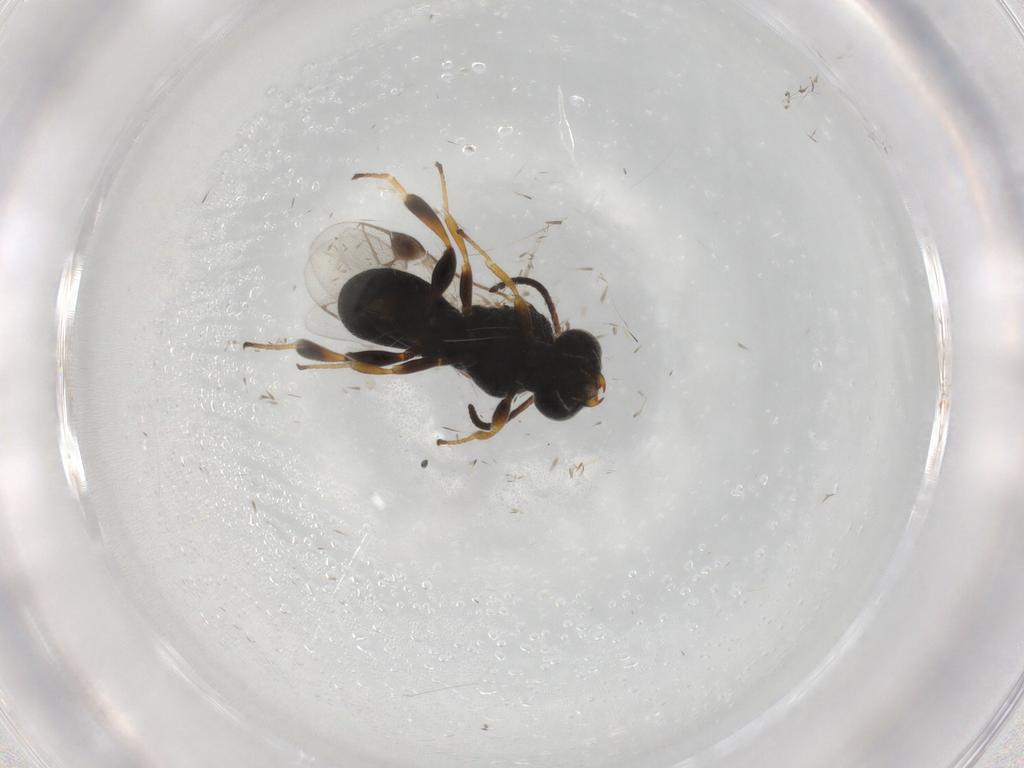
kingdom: Animalia
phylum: Arthropoda
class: Insecta
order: Hymenoptera
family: Braconidae
